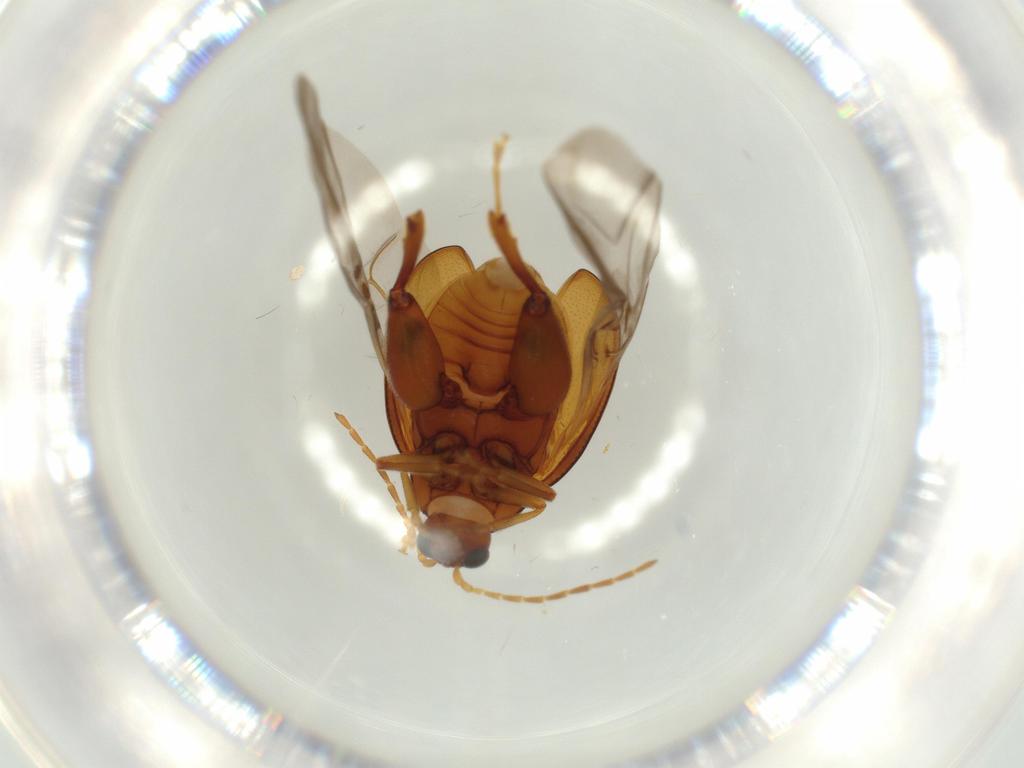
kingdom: Animalia
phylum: Arthropoda
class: Insecta
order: Coleoptera
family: Chrysomelidae
